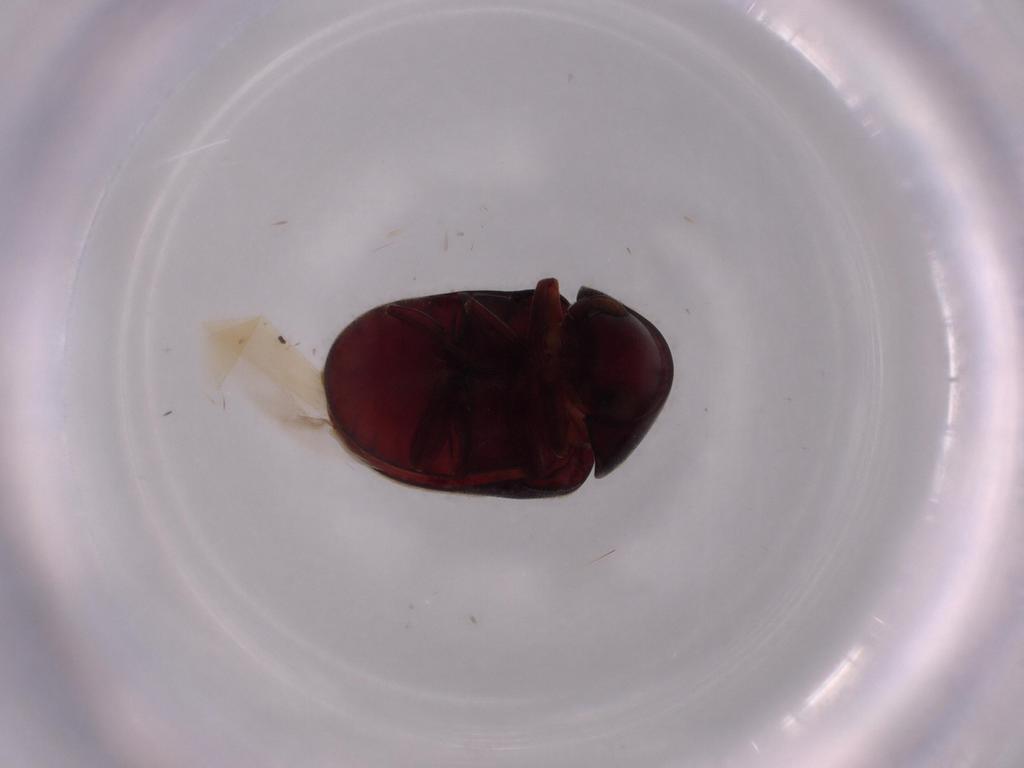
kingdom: Animalia
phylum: Arthropoda
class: Insecta
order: Coleoptera
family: Ptinidae
